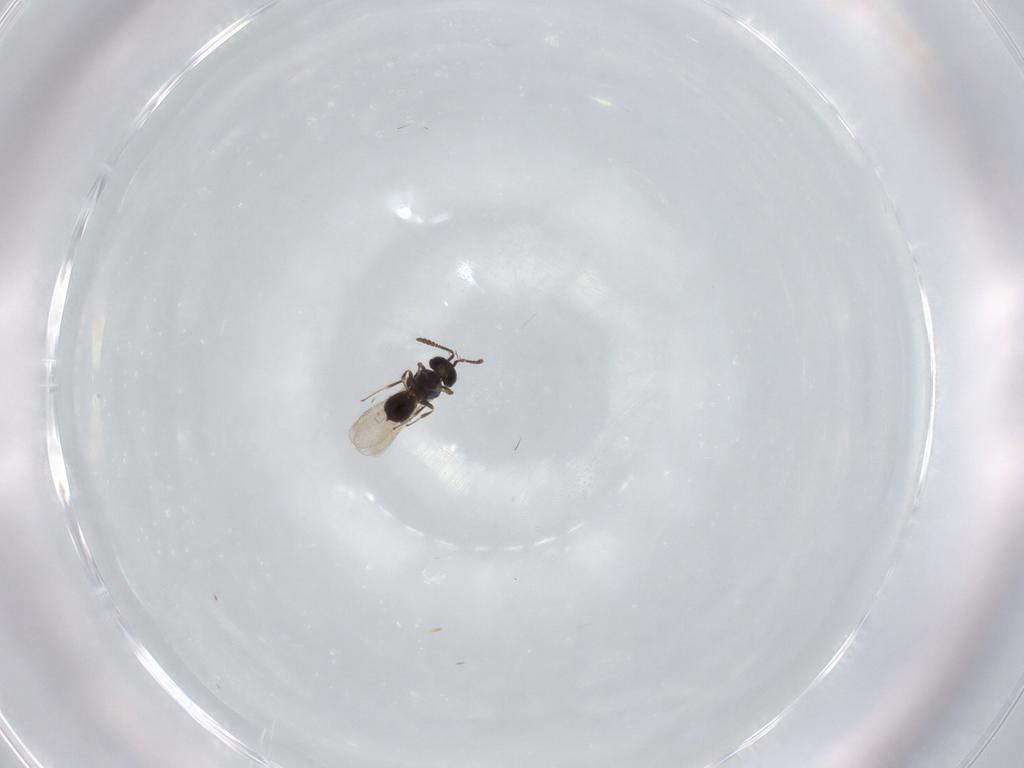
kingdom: Animalia
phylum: Arthropoda
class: Insecta
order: Hymenoptera
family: Scelionidae
